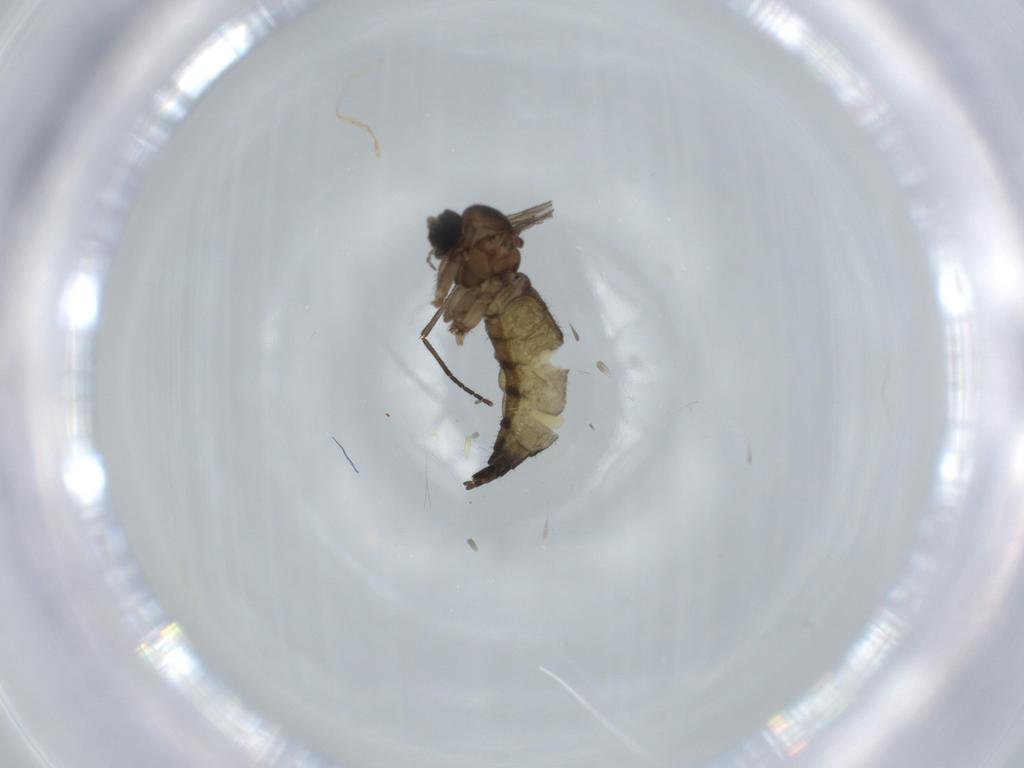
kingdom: Animalia
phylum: Arthropoda
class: Insecta
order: Diptera
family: Sciaridae
